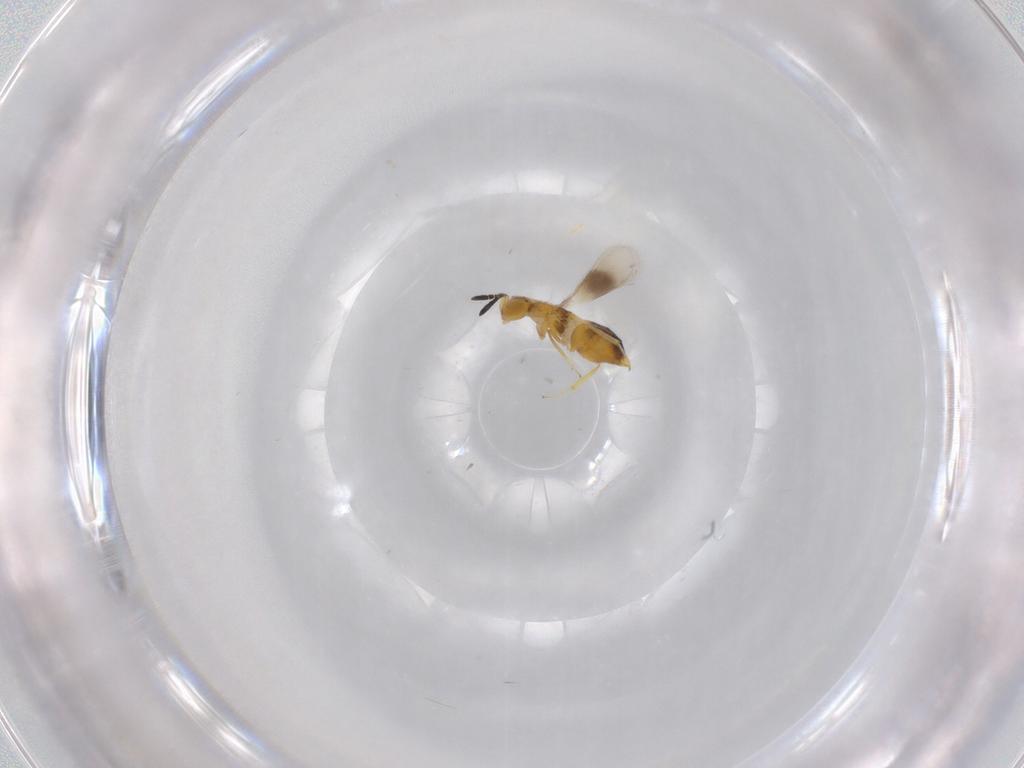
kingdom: Animalia
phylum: Arthropoda
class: Insecta
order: Hymenoptera
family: Encyrtidae
